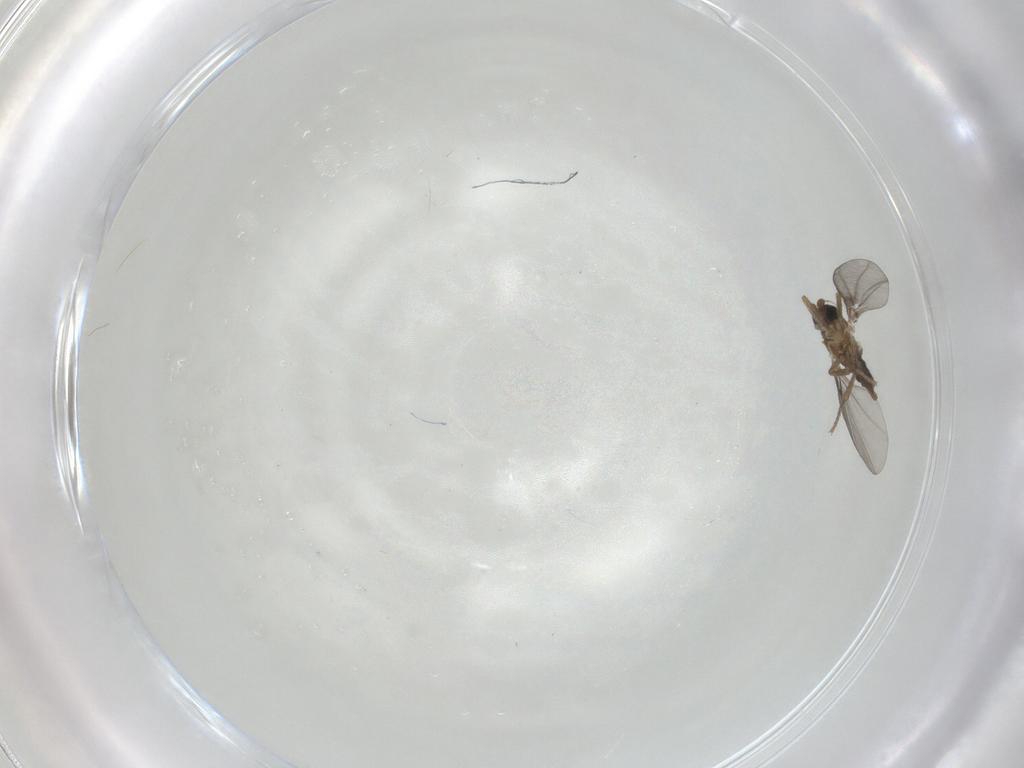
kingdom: Animalia
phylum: Arthropoda
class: Insecta
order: Diptera
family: Phoridae
